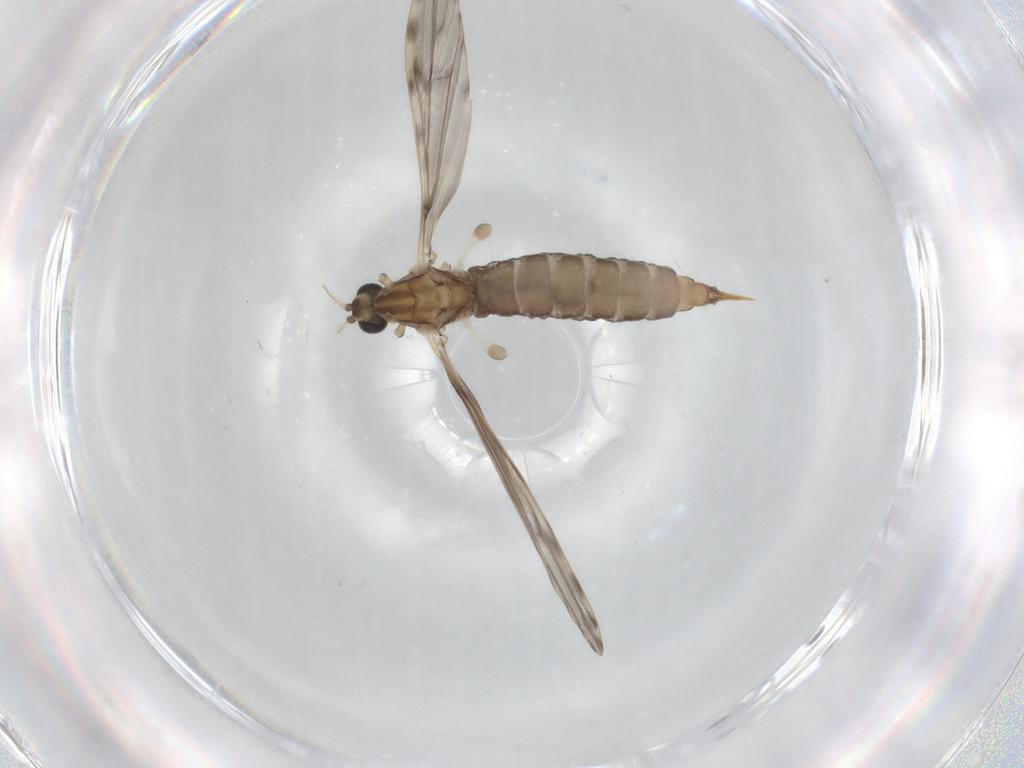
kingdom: Animalia
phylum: Arthropoda
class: Insecta
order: Diptera
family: Limoniidae
